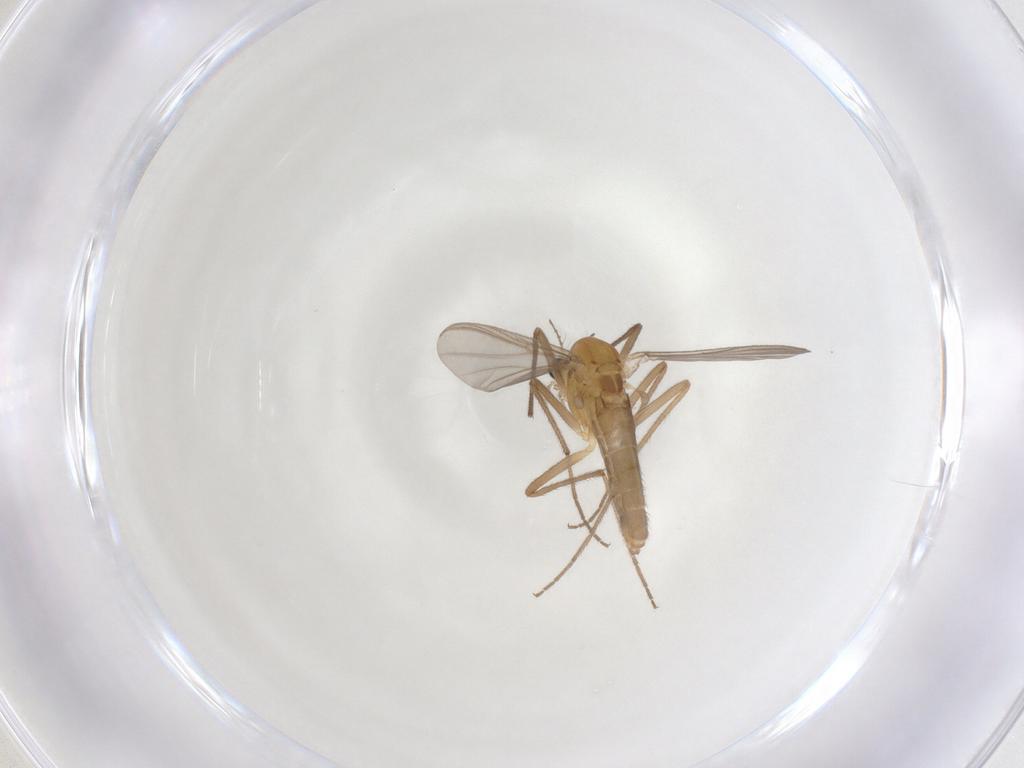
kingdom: Animalia
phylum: Arthropoda
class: Insecta
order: Diptera
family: Chironomidae
